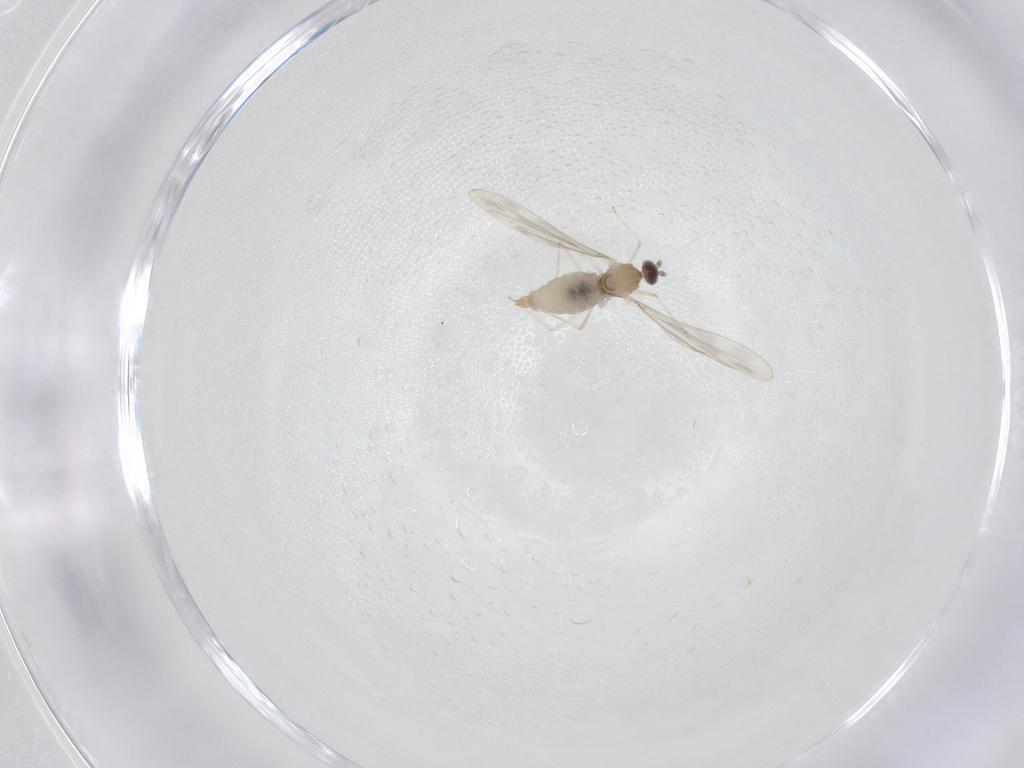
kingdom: Animalia
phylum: Arthropoda
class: Insecta
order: Diptera
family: Cecidomyiidae
